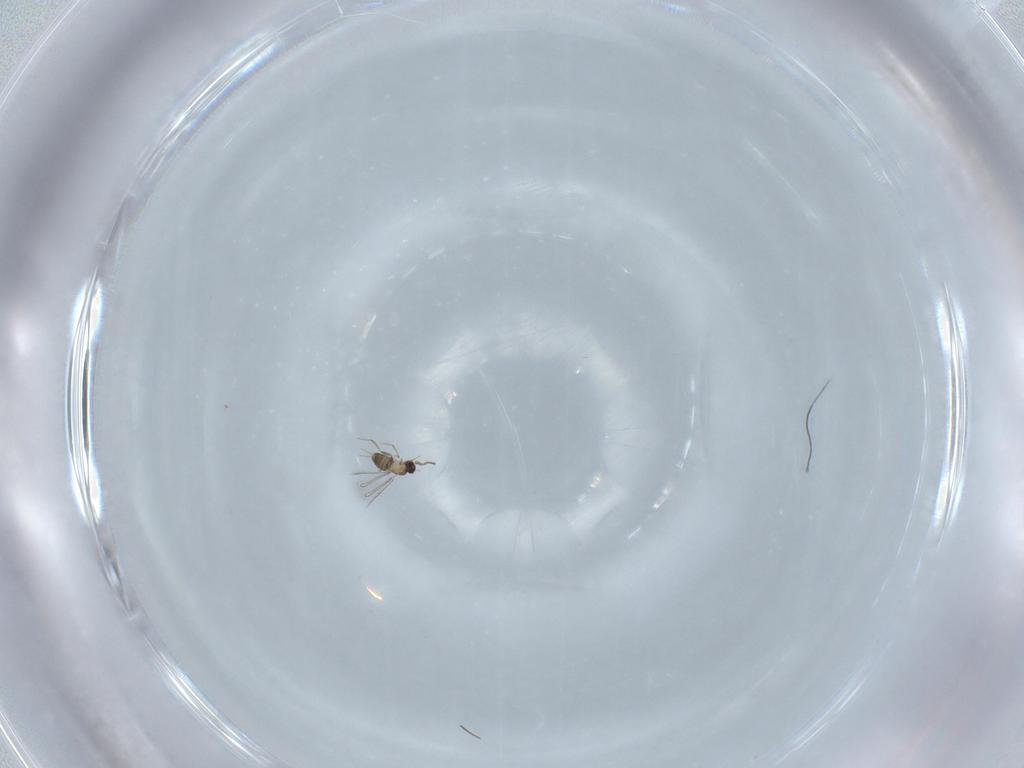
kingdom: Animalia
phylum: Arthropoda
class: Insecta
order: Hymenoptera
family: Mymaridae
